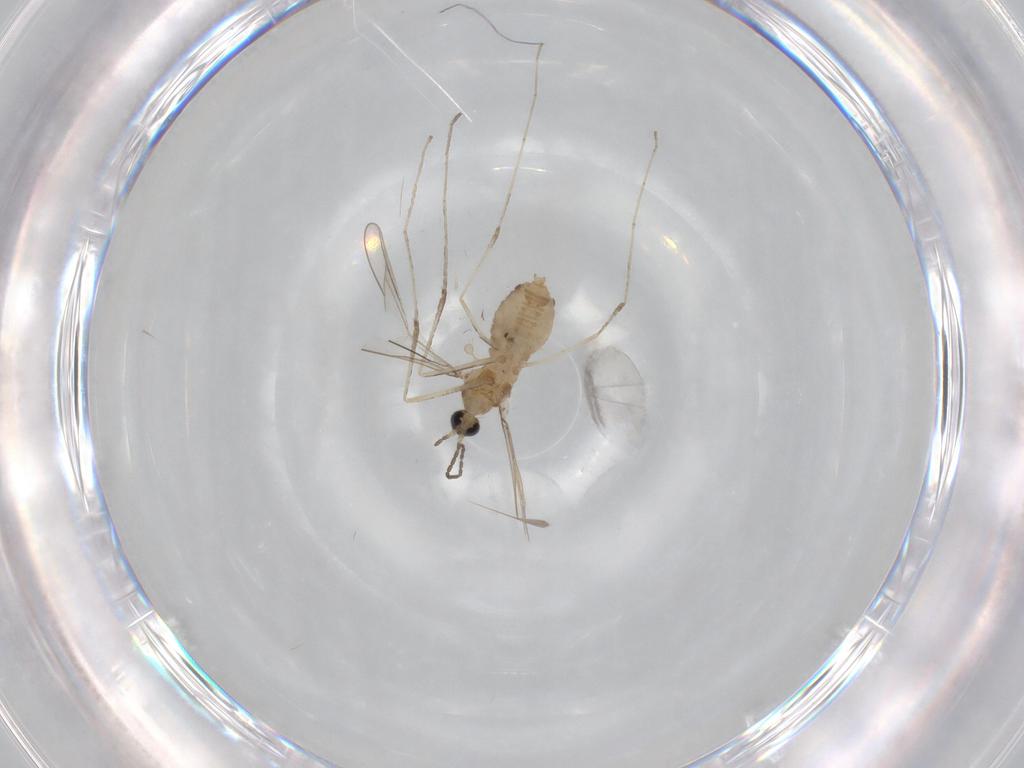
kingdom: Animalia
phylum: Arthropoda
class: Insecta
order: Diptera
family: Cecidomyiidae
